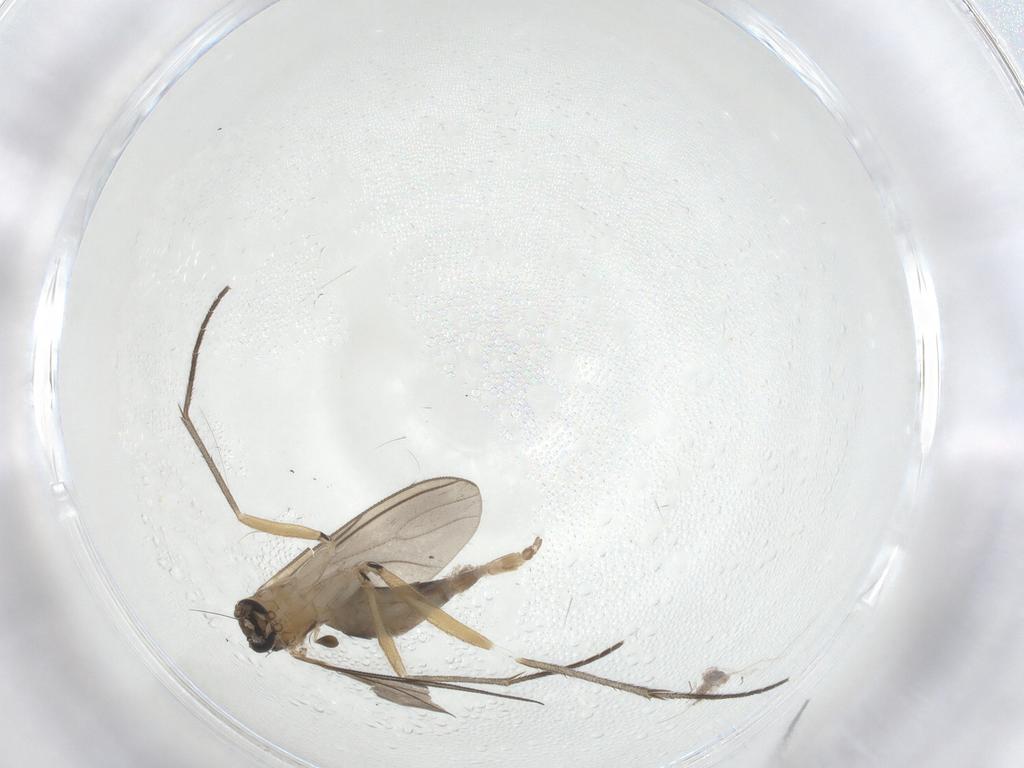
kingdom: Animalia
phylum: Arthropoda
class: Insecta
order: Diptera
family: Sciaridae
